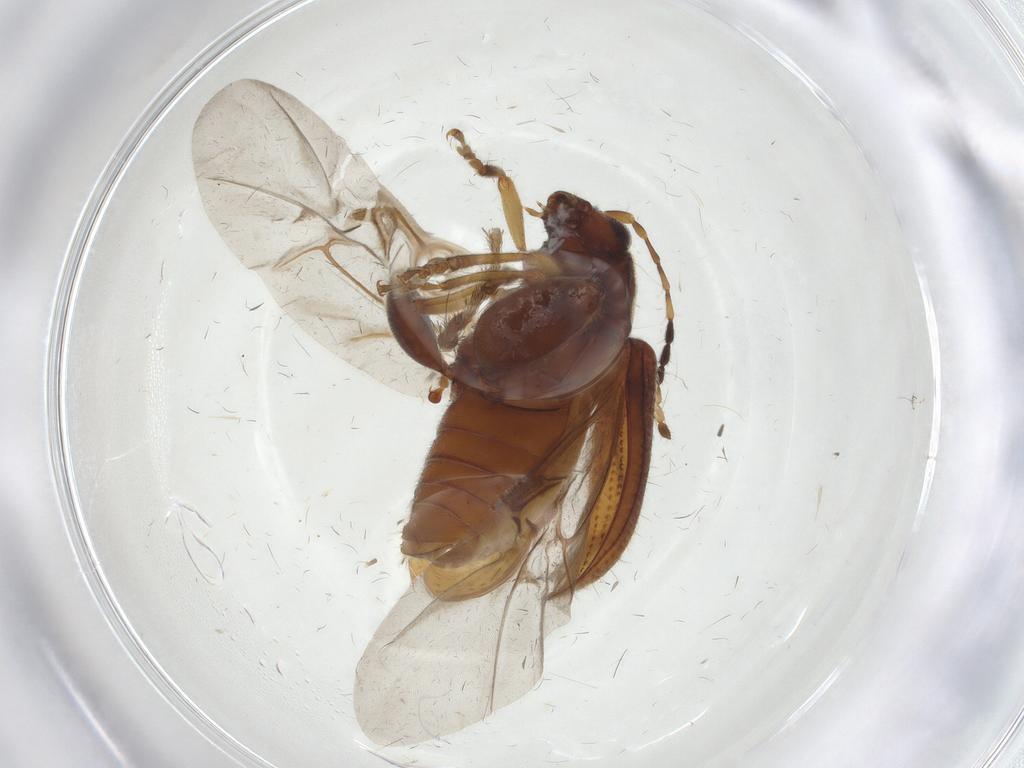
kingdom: Animalia
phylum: Arthropoda
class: Insecta
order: Coleoptera
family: Chrysomelidae
